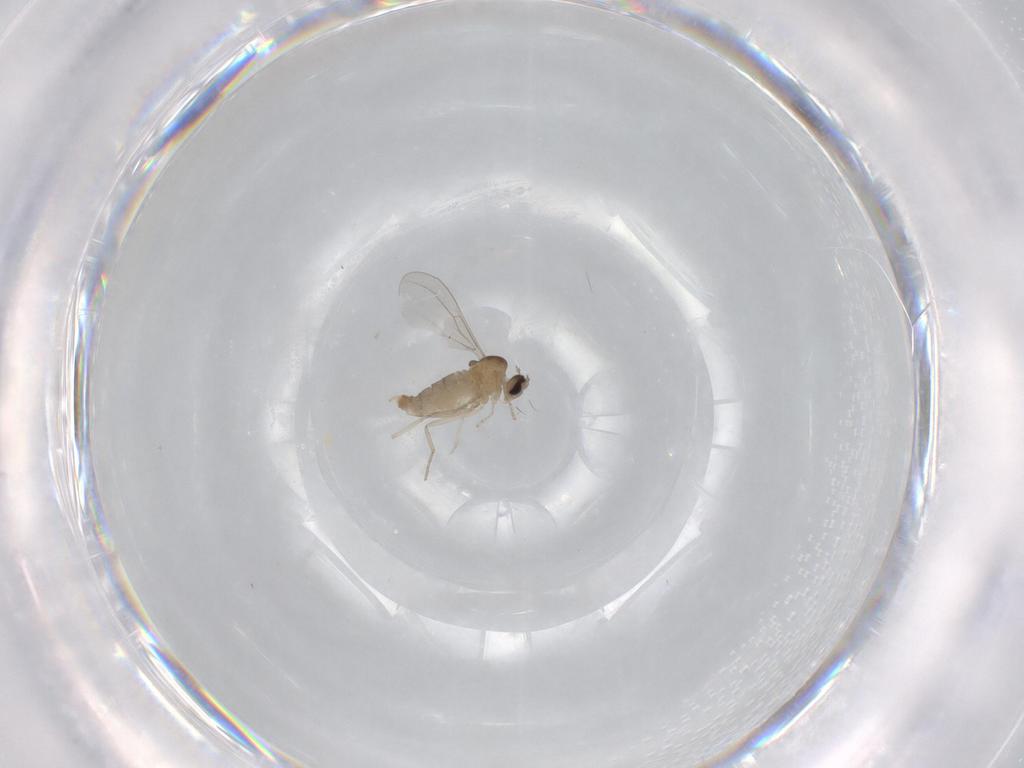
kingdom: Animalia
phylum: Arthropoda
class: Insecta
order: Diptera
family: Cecidomyiidae
